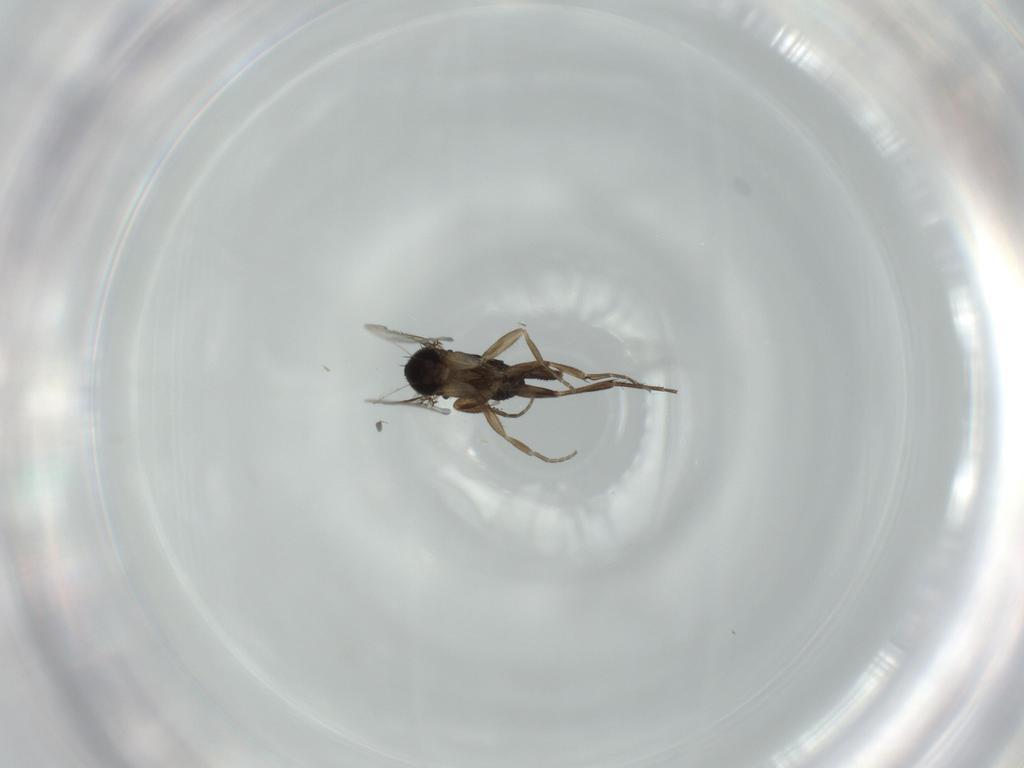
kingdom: Animalia
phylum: Arthropoda
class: Insecta
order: Diptera
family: Phoridae
